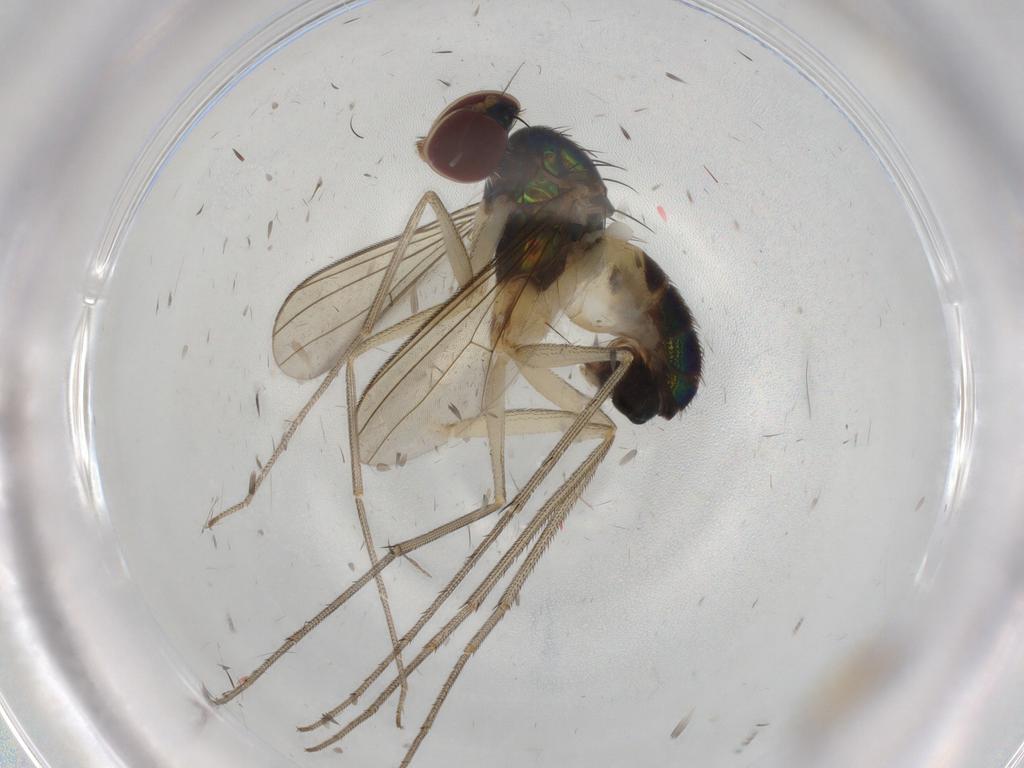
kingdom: Animalia
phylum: Arthropoda
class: Insecta
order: Diptera
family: Dolichopodidae
